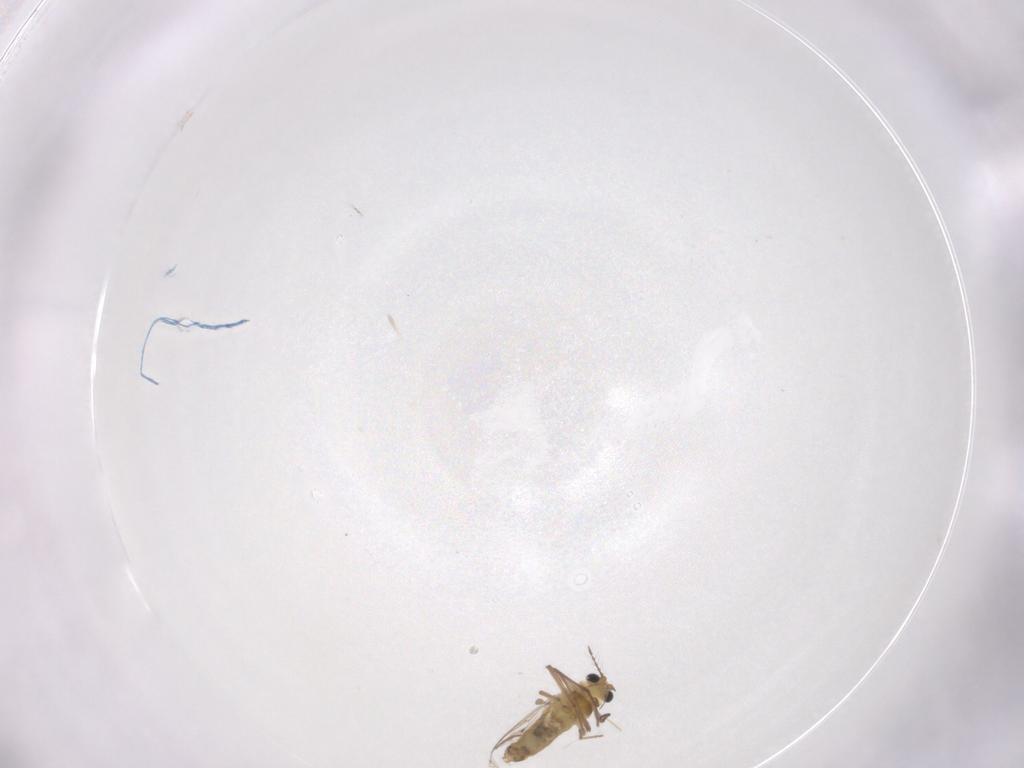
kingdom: Animalia
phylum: Arthropoda
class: Insecta
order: Diptera
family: Chironomidae
